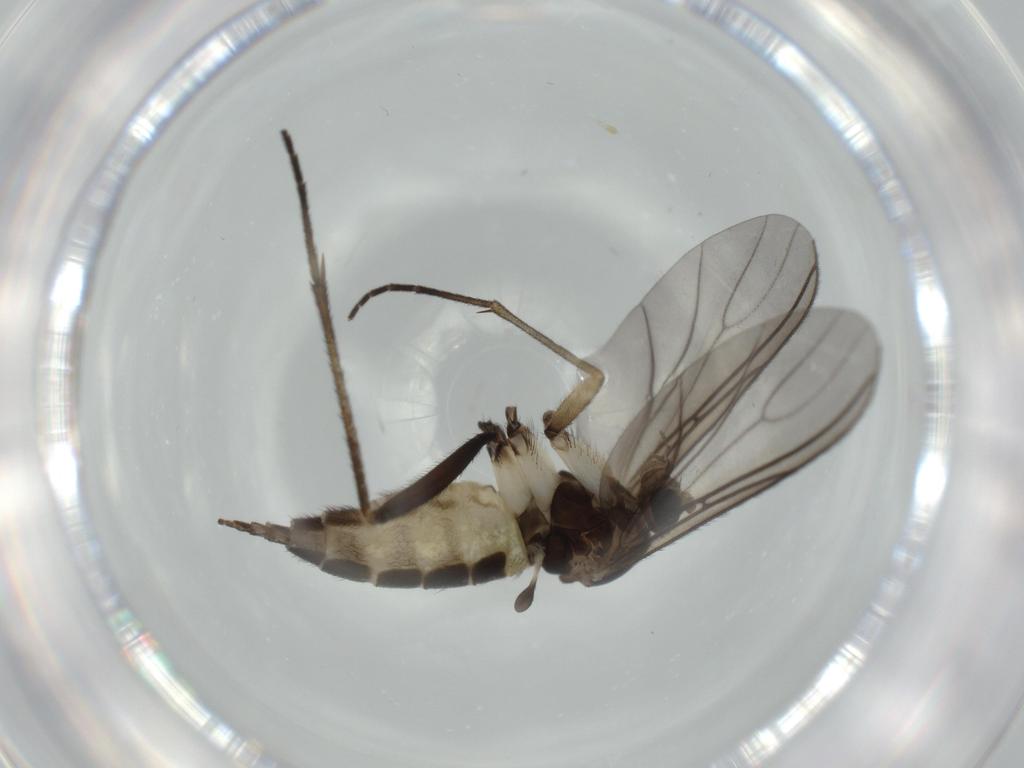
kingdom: Animalia
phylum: Arthropoda
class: Insecta
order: Diptera
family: Sciaridae
